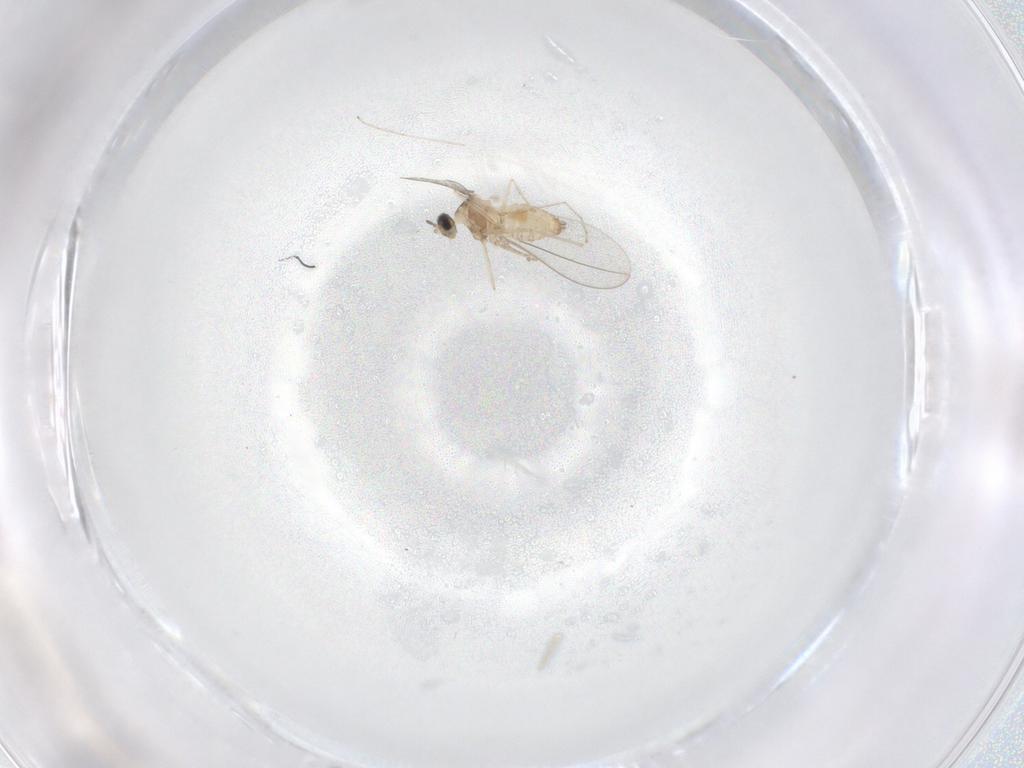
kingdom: Animalia
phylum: Arthropoda
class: Insecta
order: Diptera
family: Cecidomyiidae
